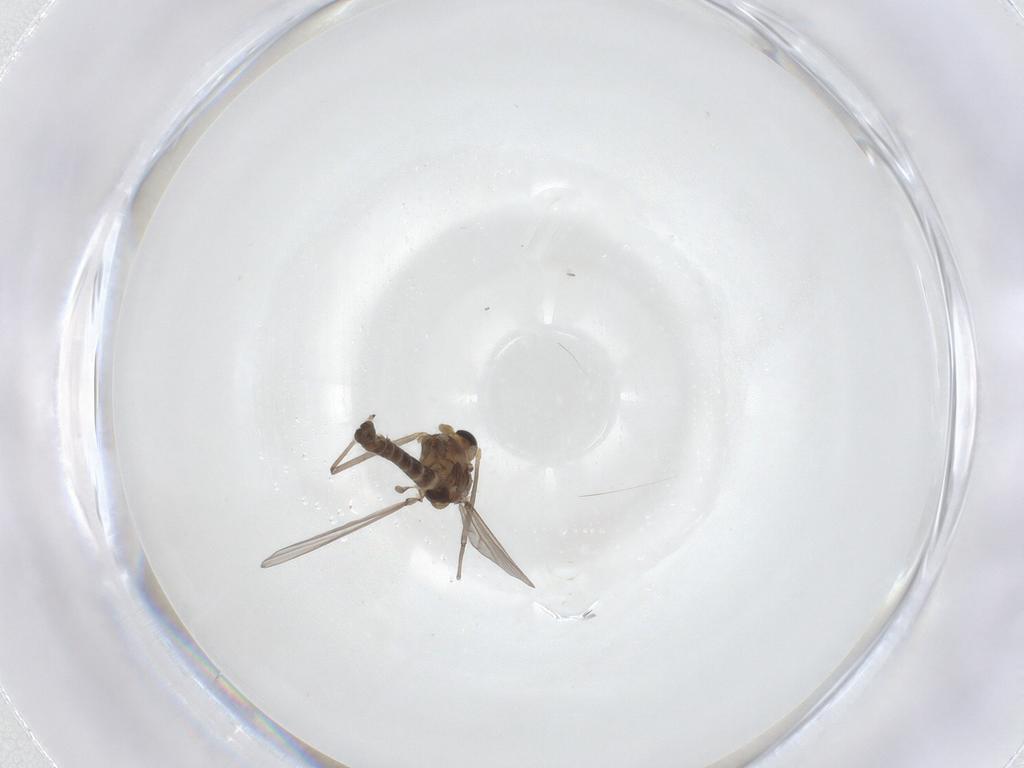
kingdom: Animalia
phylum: Arthropoda
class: Insecta
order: Diptera
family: Chironomidae
